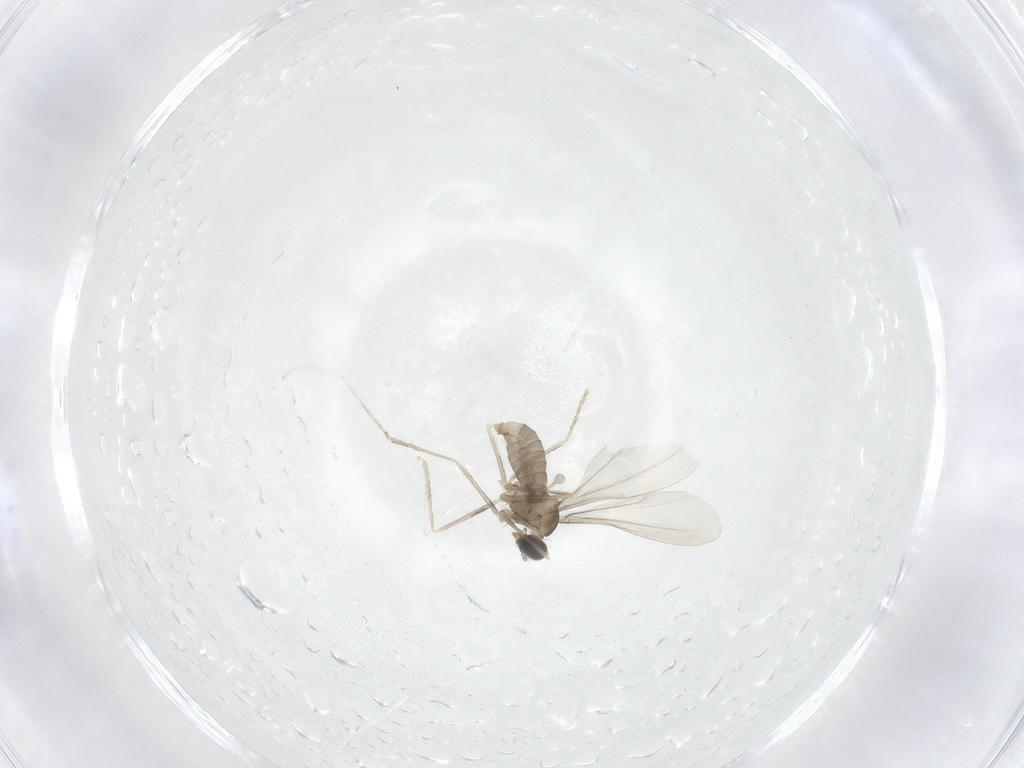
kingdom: Animalia
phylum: Arthropoda
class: Insecta
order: Diptera
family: Cecidomyiidae
